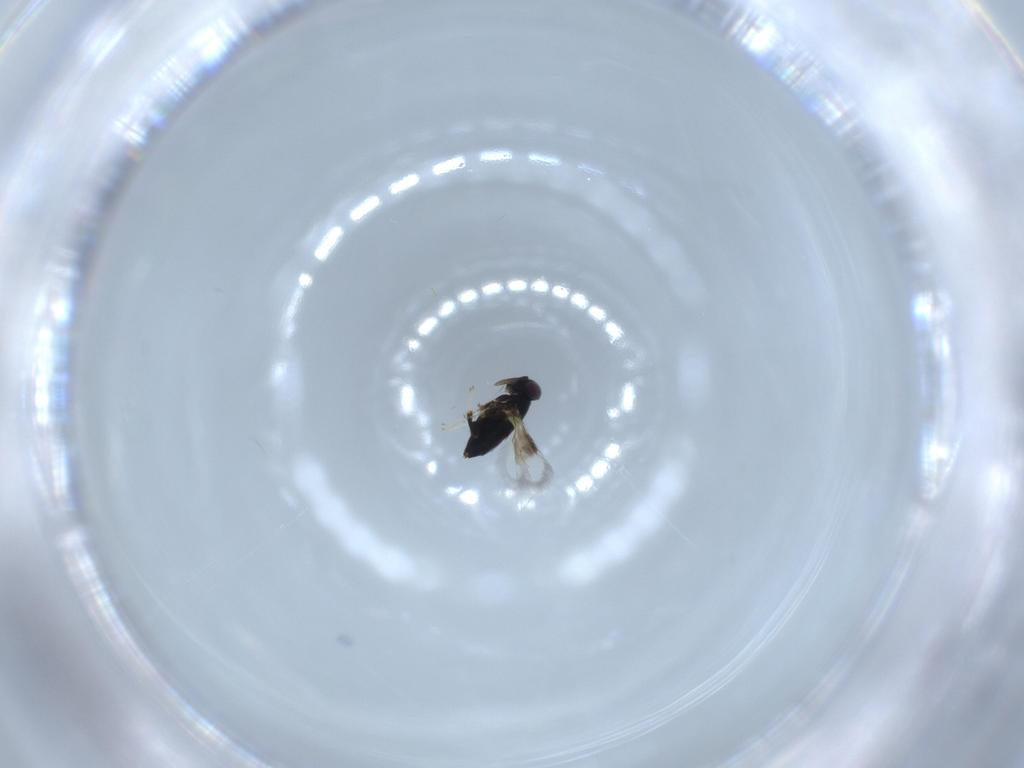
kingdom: Animalia
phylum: Arthropoda
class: Insecta
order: Hymenoptera
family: Signiphoridae
